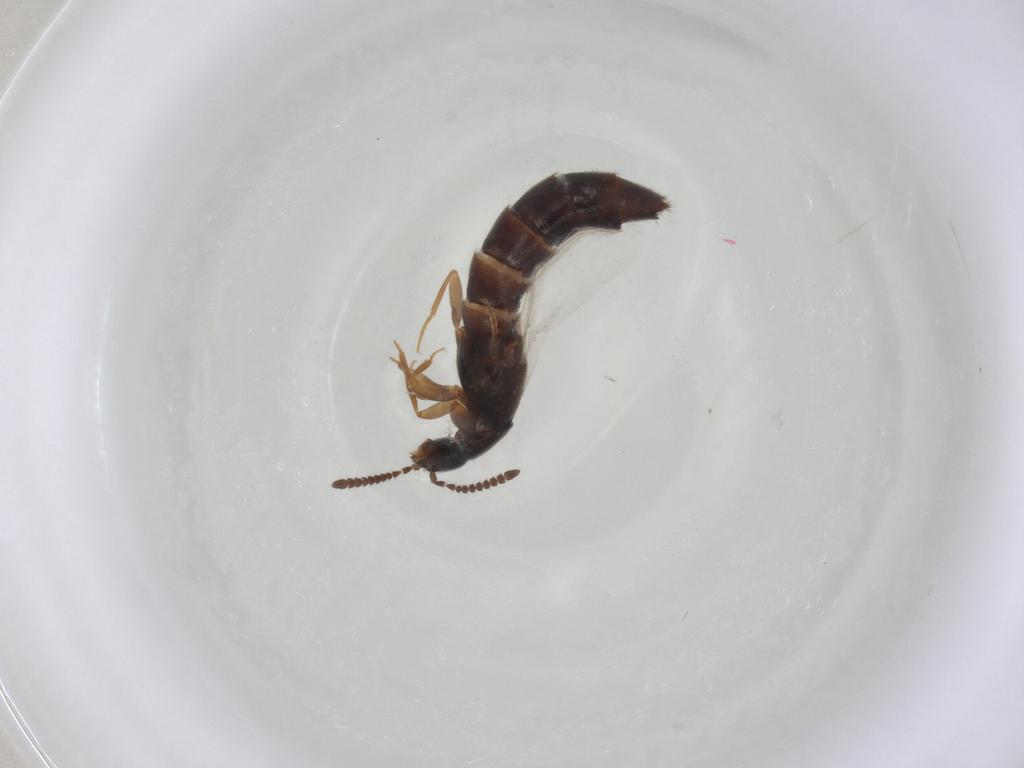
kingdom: Animalia
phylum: Arthropoda
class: Insecta
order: Coleoptera
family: Staphylinidae
